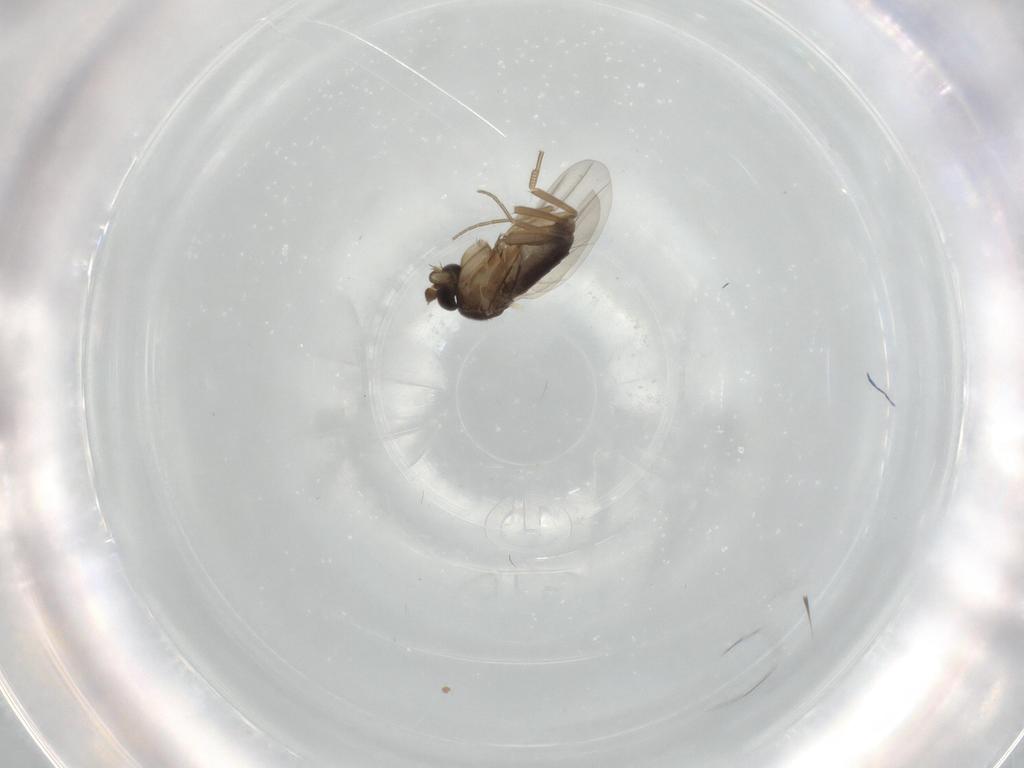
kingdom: Animalia
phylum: Arthropoda
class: Insecta
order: Diptera
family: Phoridae
